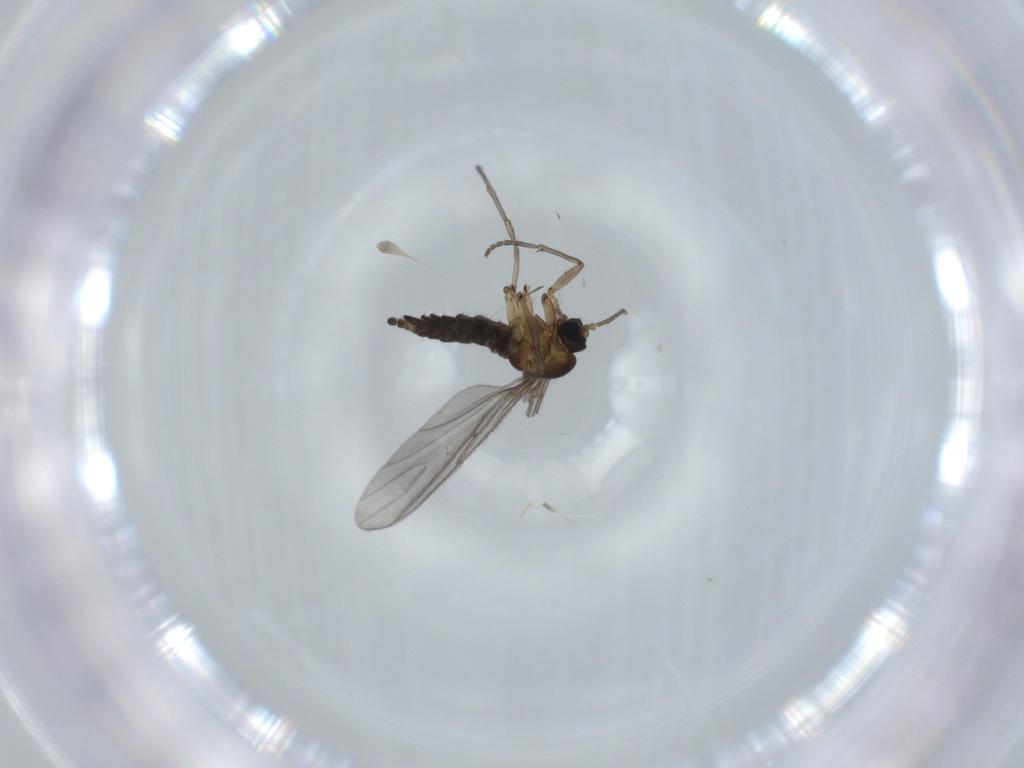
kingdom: Animalia
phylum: Arthropoda
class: Insecta
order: Diptera
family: Sciaridae
